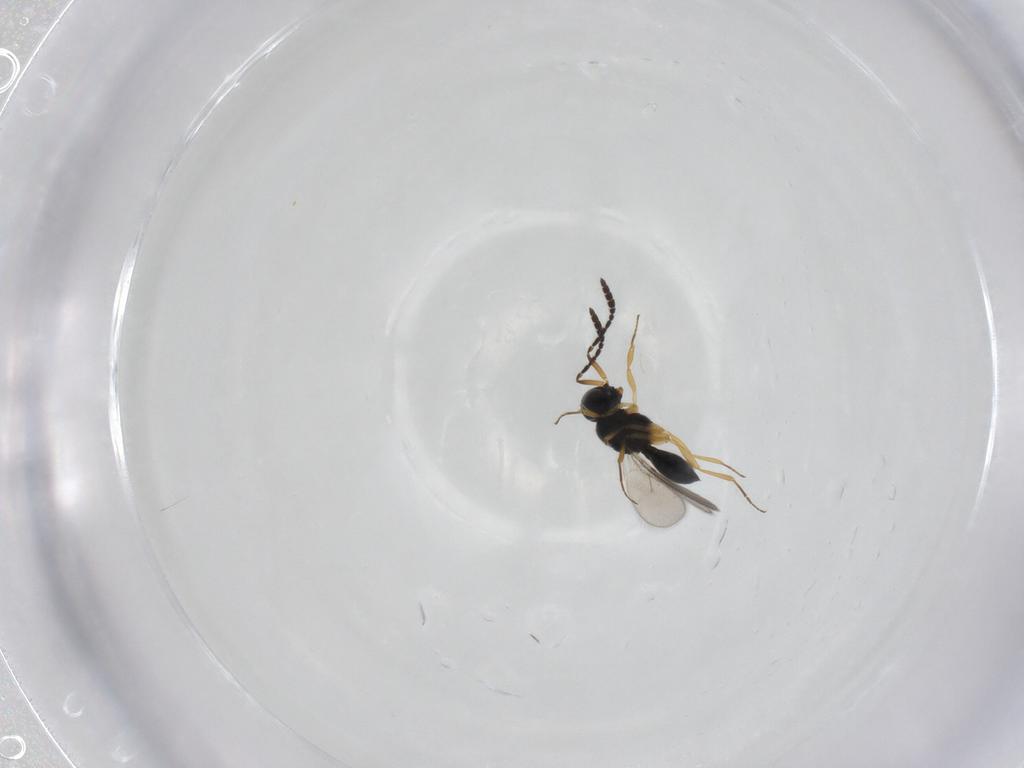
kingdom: Animalia
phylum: Arthropoda
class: Insecta
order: Hymenoptera
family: Scelionidae
